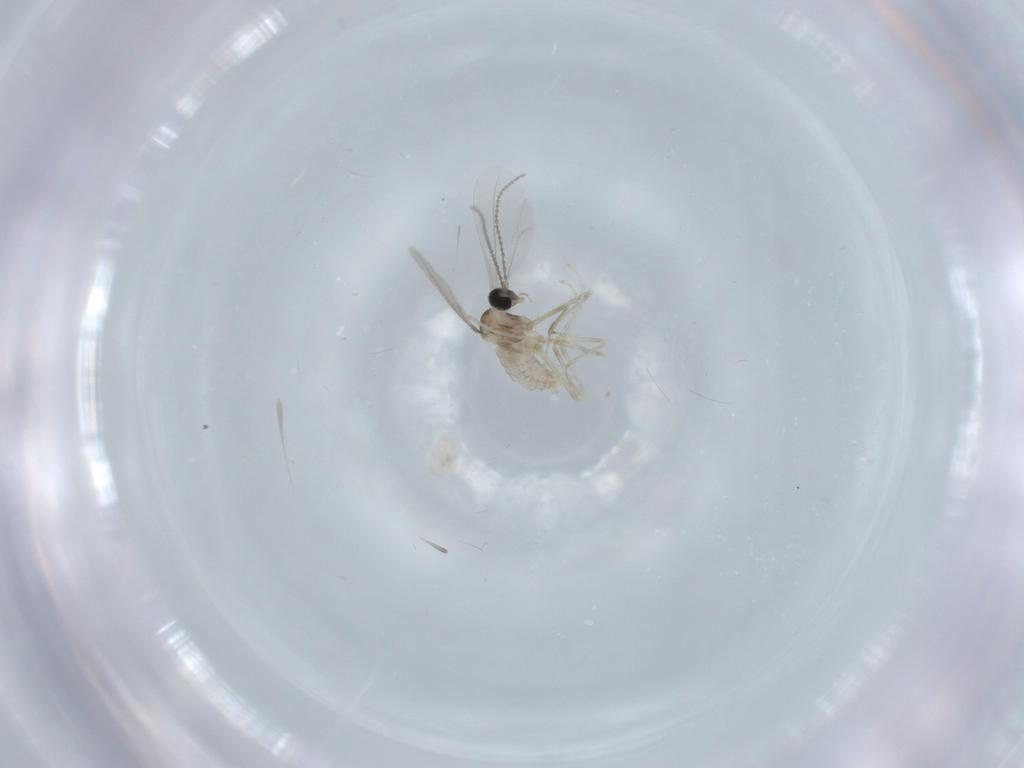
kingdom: Animalia
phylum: Arthropoda
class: Insecta
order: Diptera
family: Cecidomyiidae
